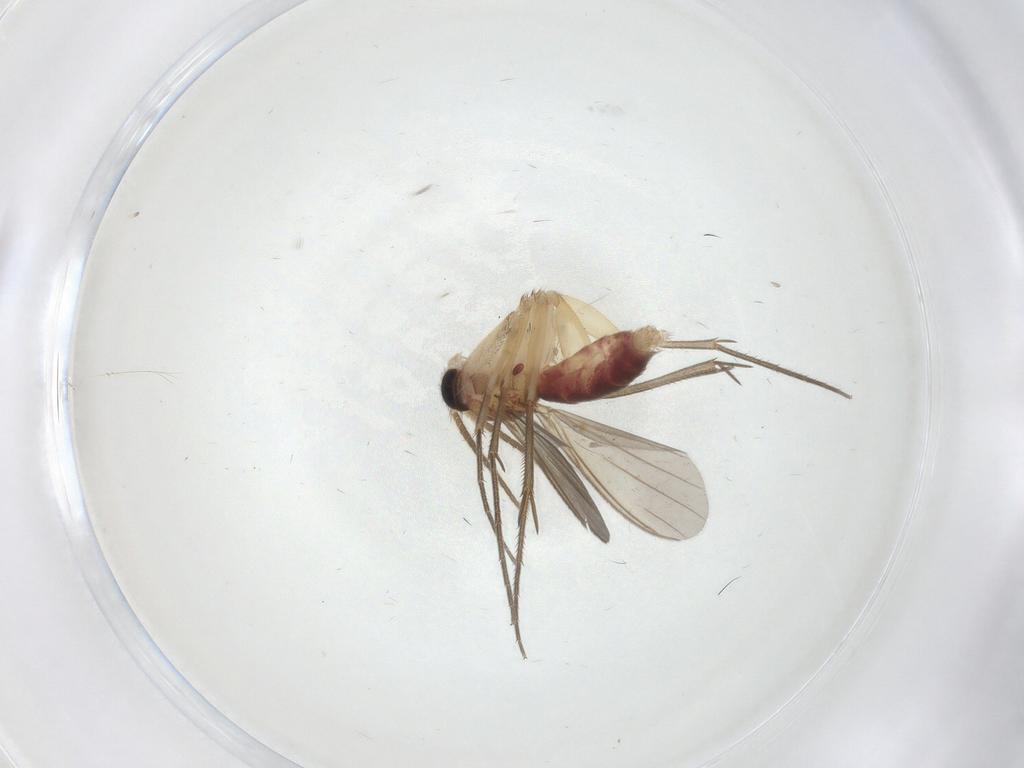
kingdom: Animalia
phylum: Arthropoda
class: Insecta
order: Diptera
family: Mycetophilidae
